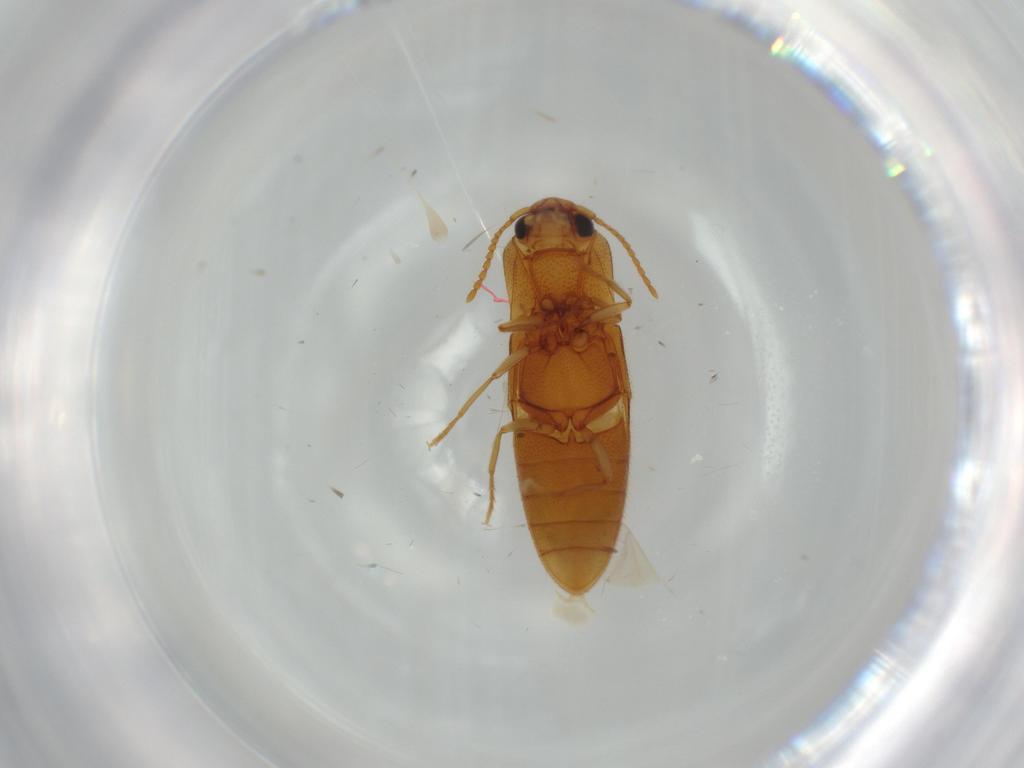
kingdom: Animalia
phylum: Arthropoda
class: Insecta
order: Coleoptera
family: Elateridae
